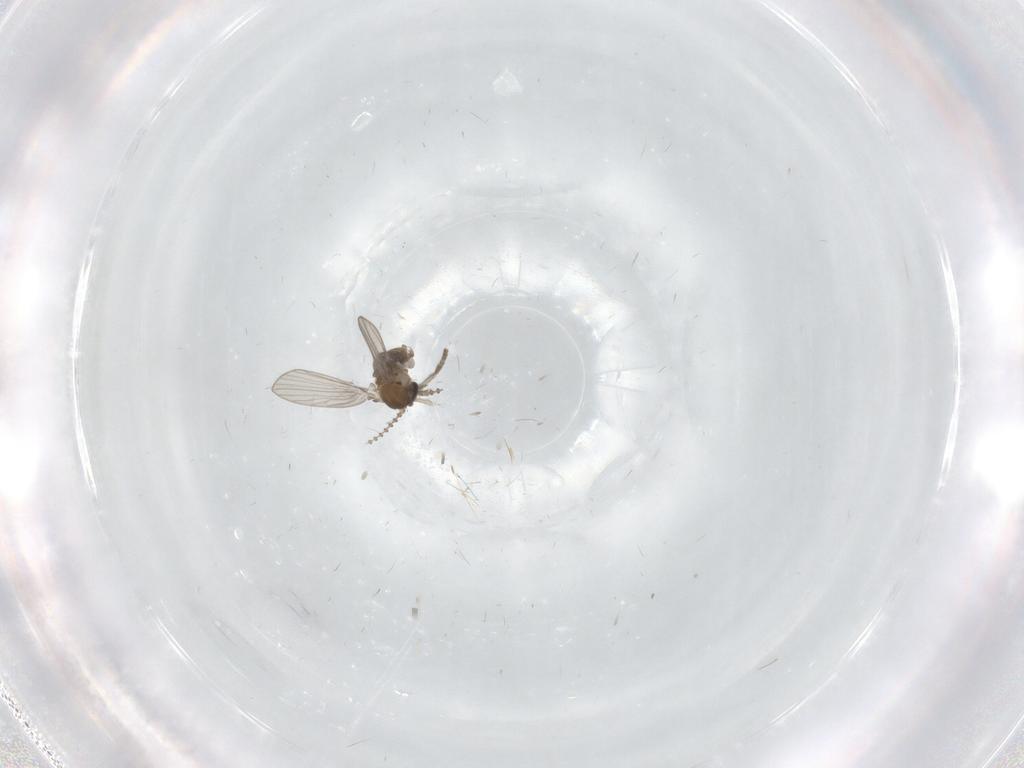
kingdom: Animalia
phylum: Arthropoda
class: Insecta
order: Diptera
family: Psychodidae
